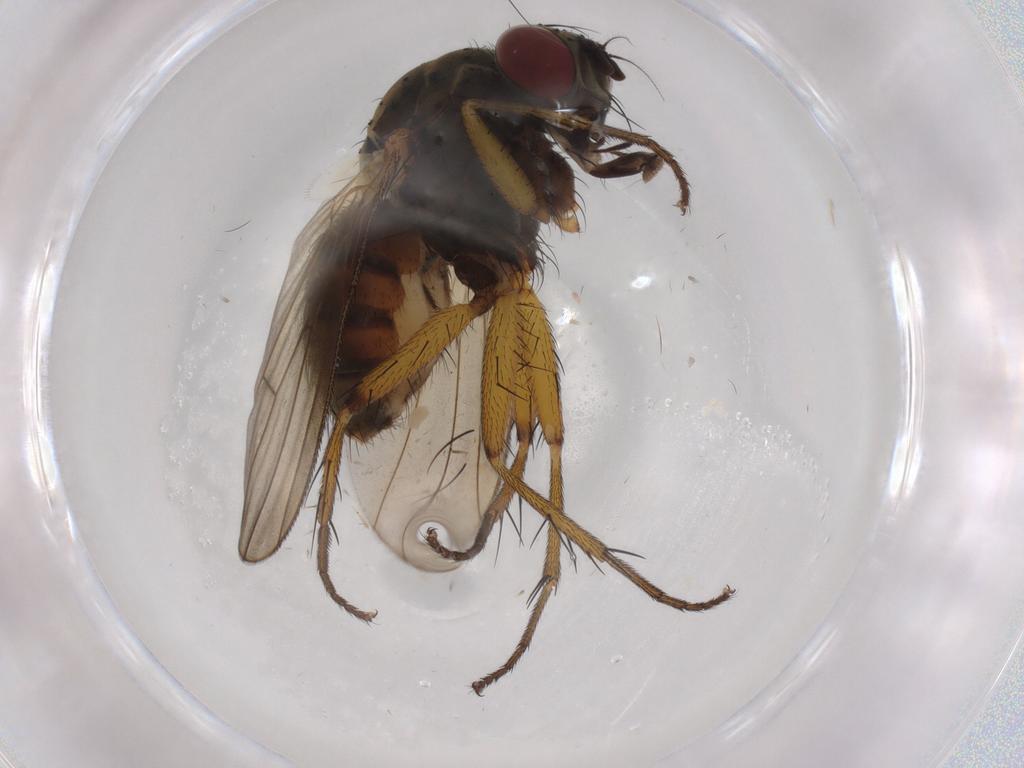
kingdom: Animalia
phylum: Arthropoda
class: Insecta
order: Diptera
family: Muscidae
